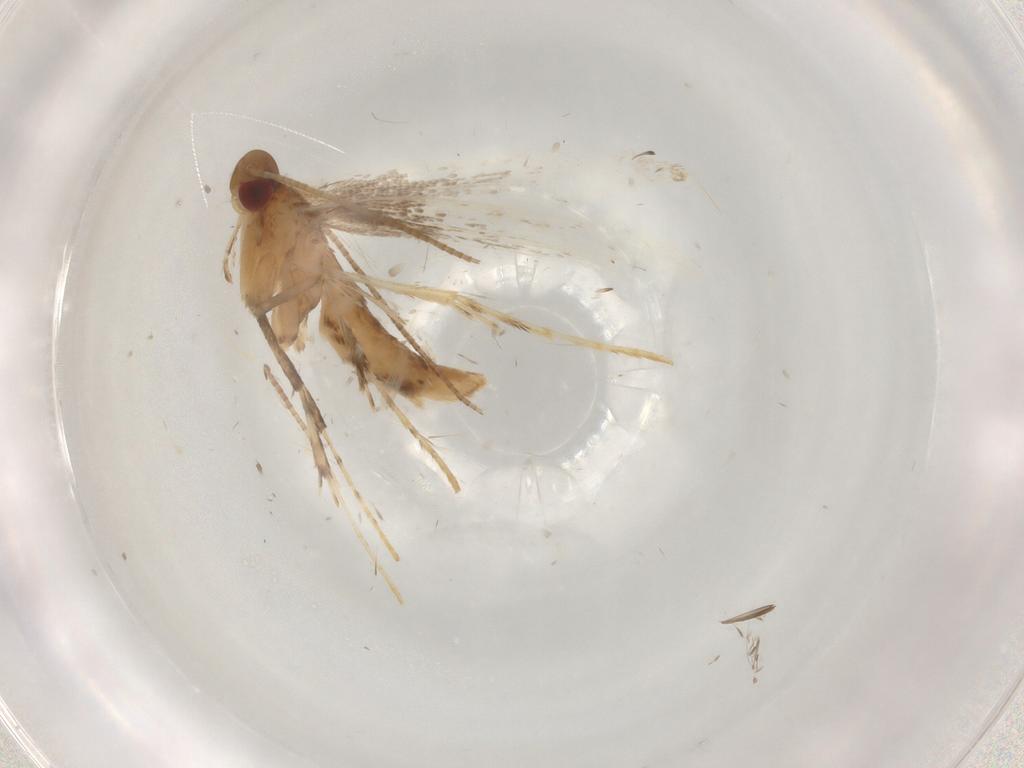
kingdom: Animalia
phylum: Arthropoda
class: Insecta
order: Lepidoptera
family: Gracillariidae
